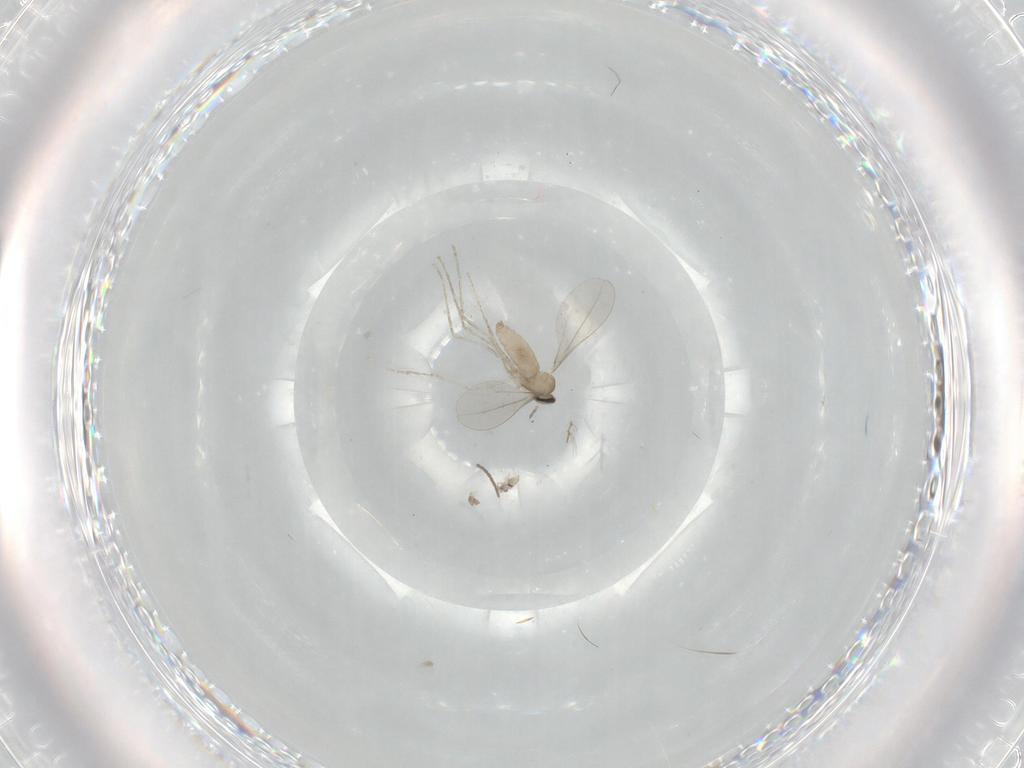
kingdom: Animalia
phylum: Arthropoda
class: Insecta
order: Diptera
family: Cecidomyiidae
